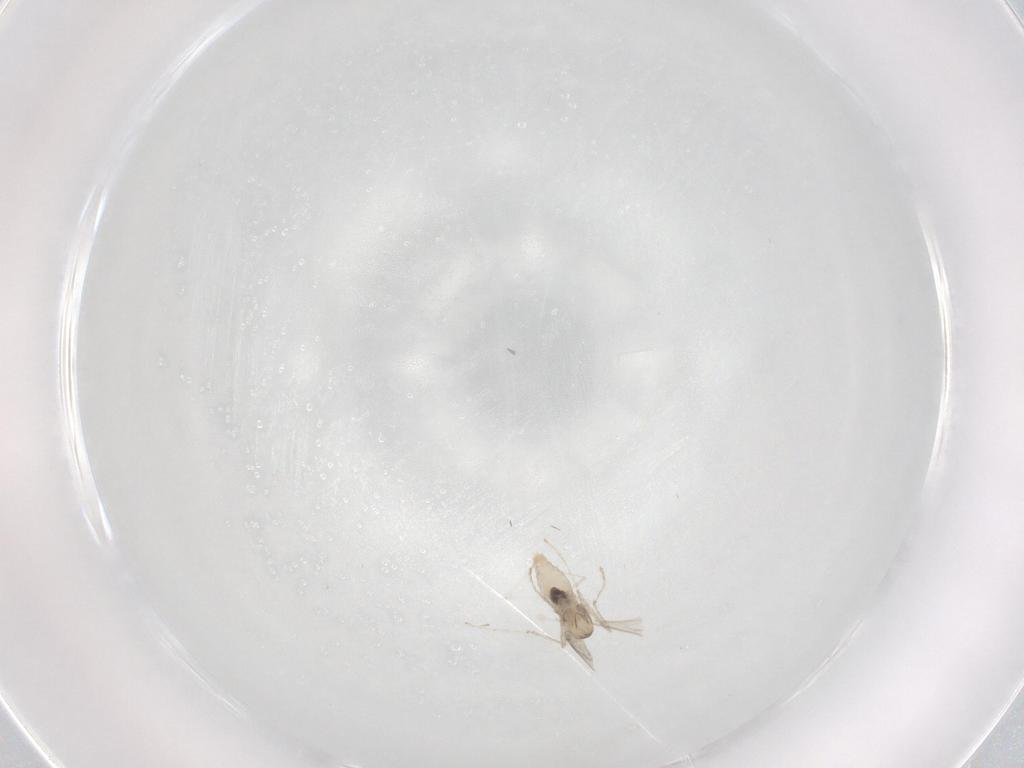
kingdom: Animalia
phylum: Arthropoda
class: Insecta
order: Diptera
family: Cecidomyiidae
